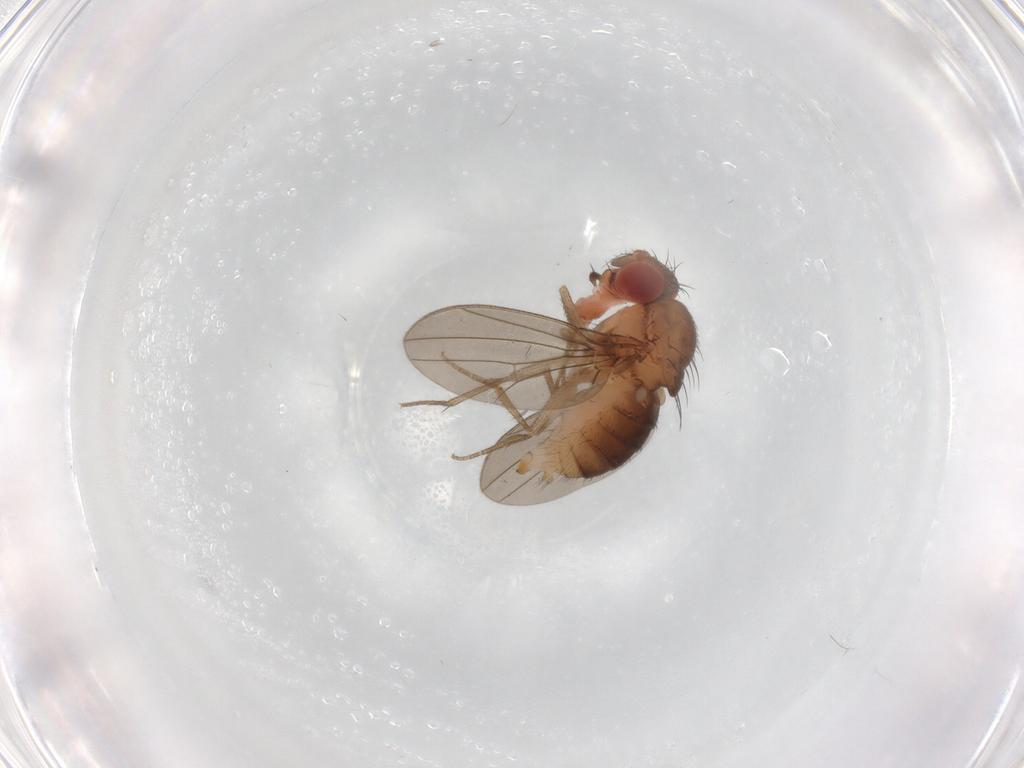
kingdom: Animalia
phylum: Arthropoda
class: Insecta
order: Diptera
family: Drosophilidae
